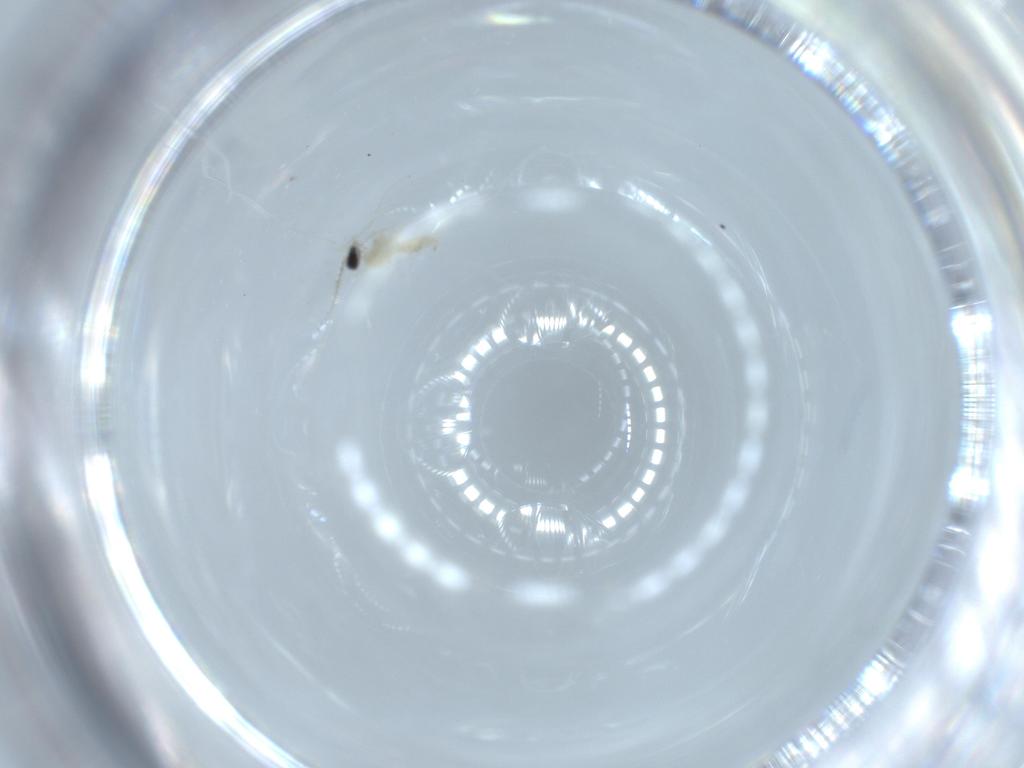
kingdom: Animalia
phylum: Arthropoda
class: Insecta
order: Diptera
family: Cecidomyiidae
